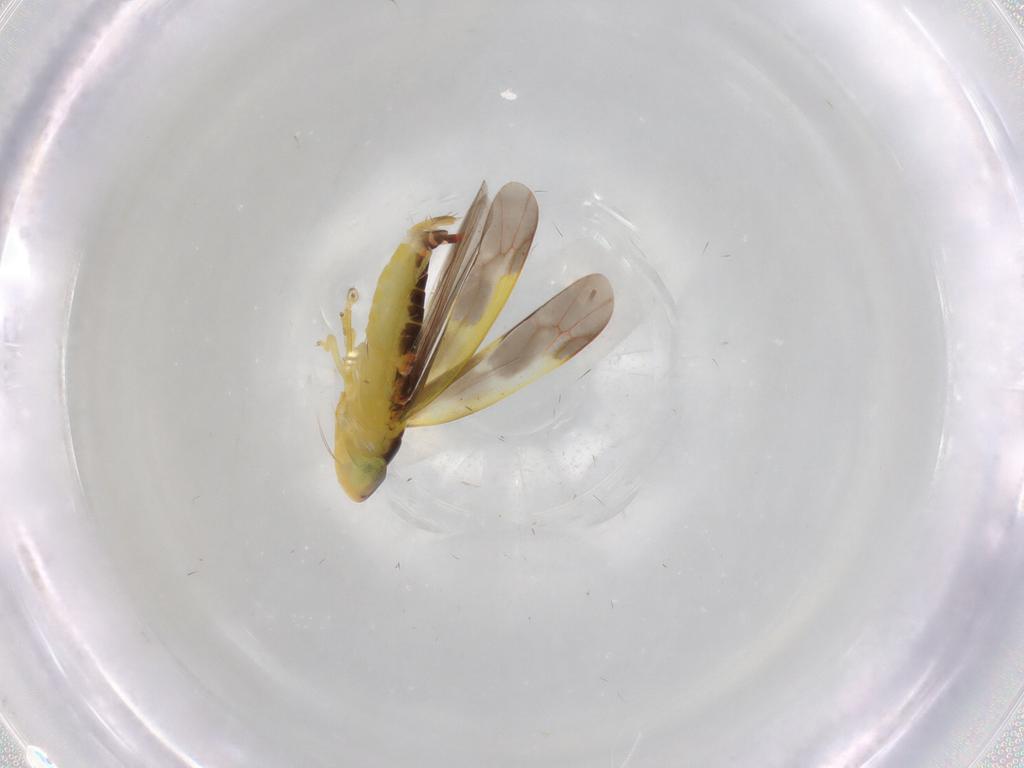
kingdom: Animalia
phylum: Arthropoda
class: Insecta
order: Hemiptera
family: Cicadellidae
